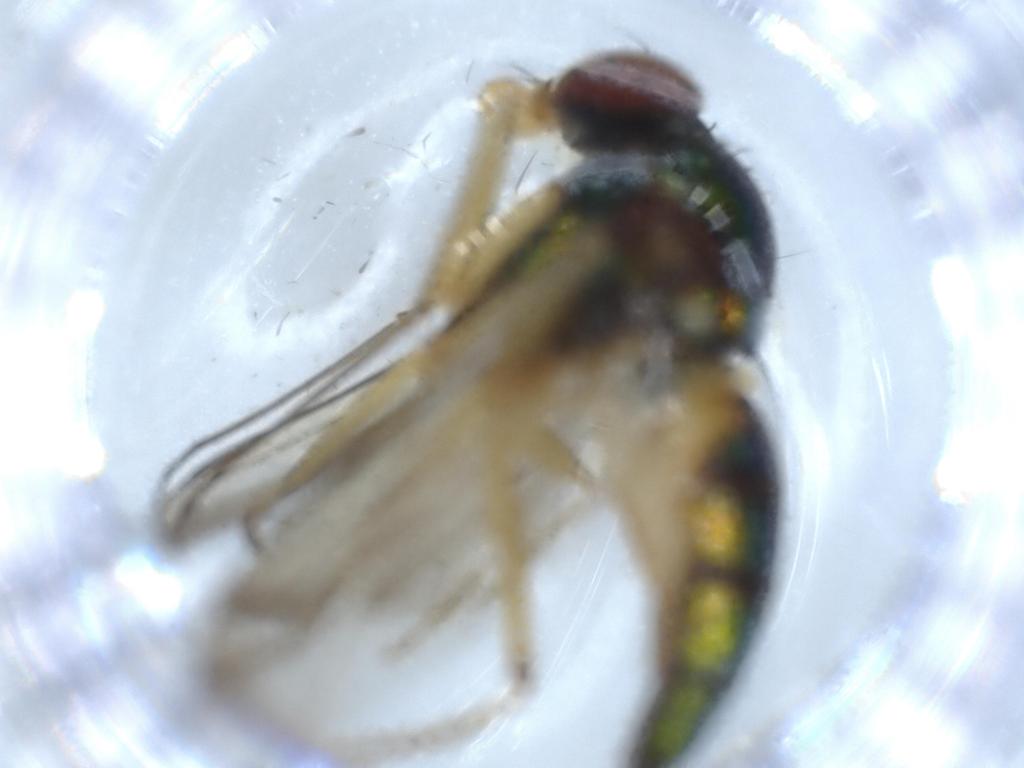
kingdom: Animalia
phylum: Arthropoda
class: Insecta
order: Diptera
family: Dolichopodidae
